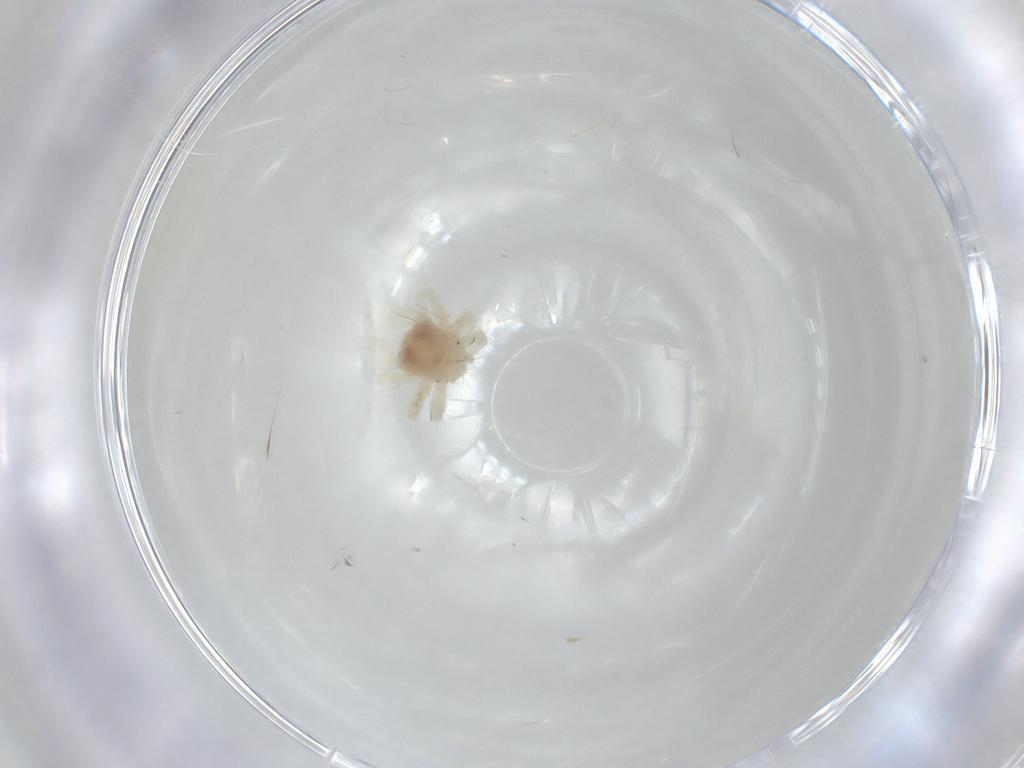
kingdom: Animalia
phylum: Arthropoda
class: Arachnida
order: Trombidiformes
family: Anystidae
